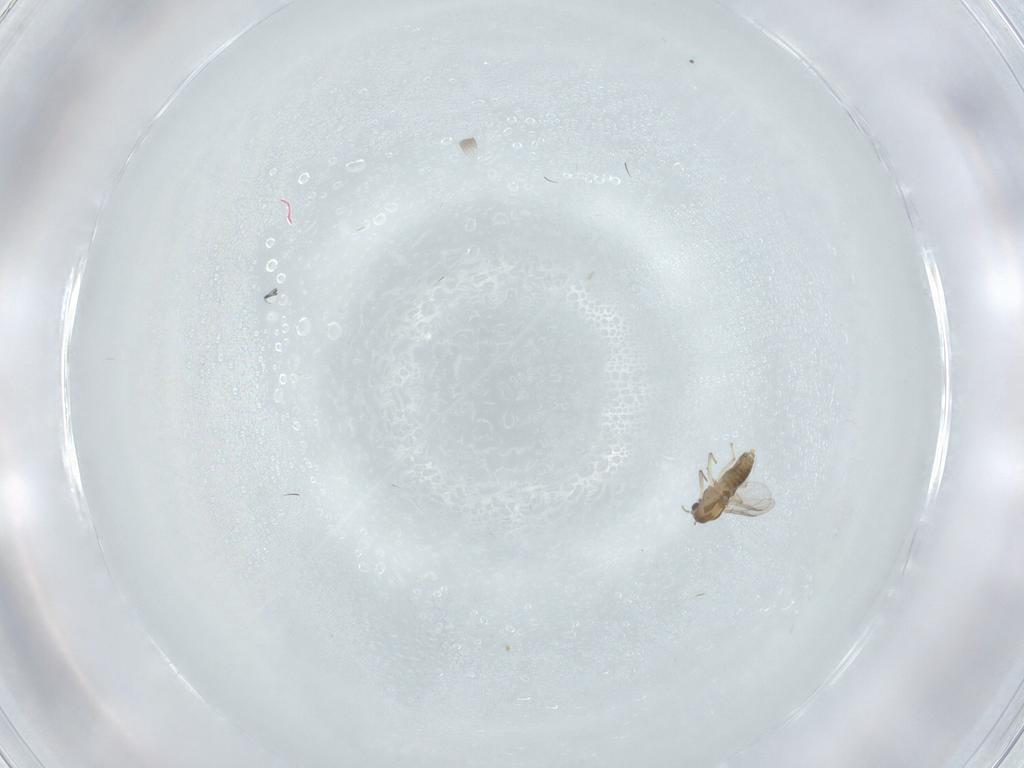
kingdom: Animalia
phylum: Arthropoda
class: Insecta
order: Diptera
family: Chironomidae
